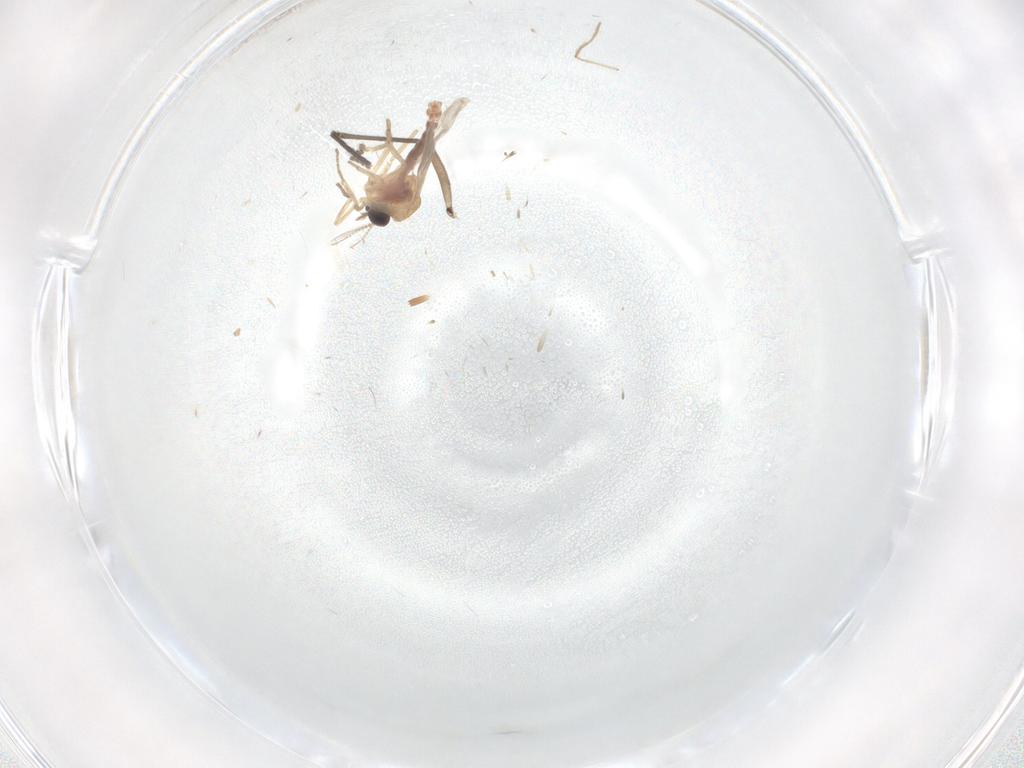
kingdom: Animalia
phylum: Arthropoda
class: Insecta
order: Diptera
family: Sciaridae
